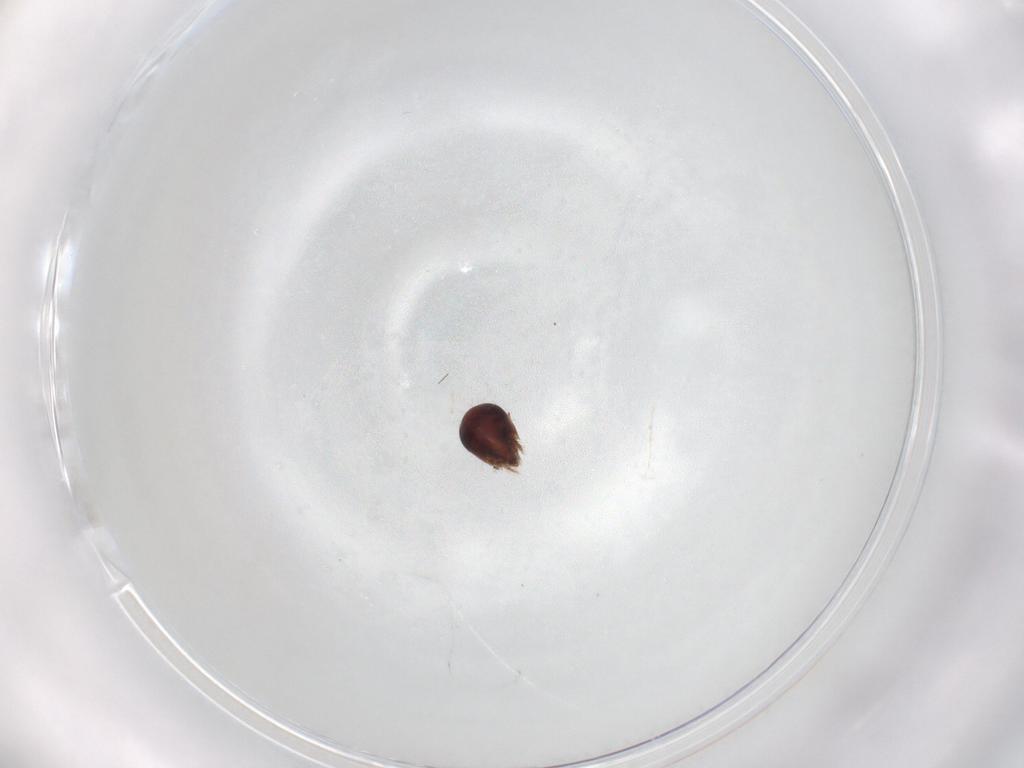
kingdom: Animalia
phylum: Arthropoda
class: Arachnida
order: Sarcoptiformes
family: Ceratozetidae
